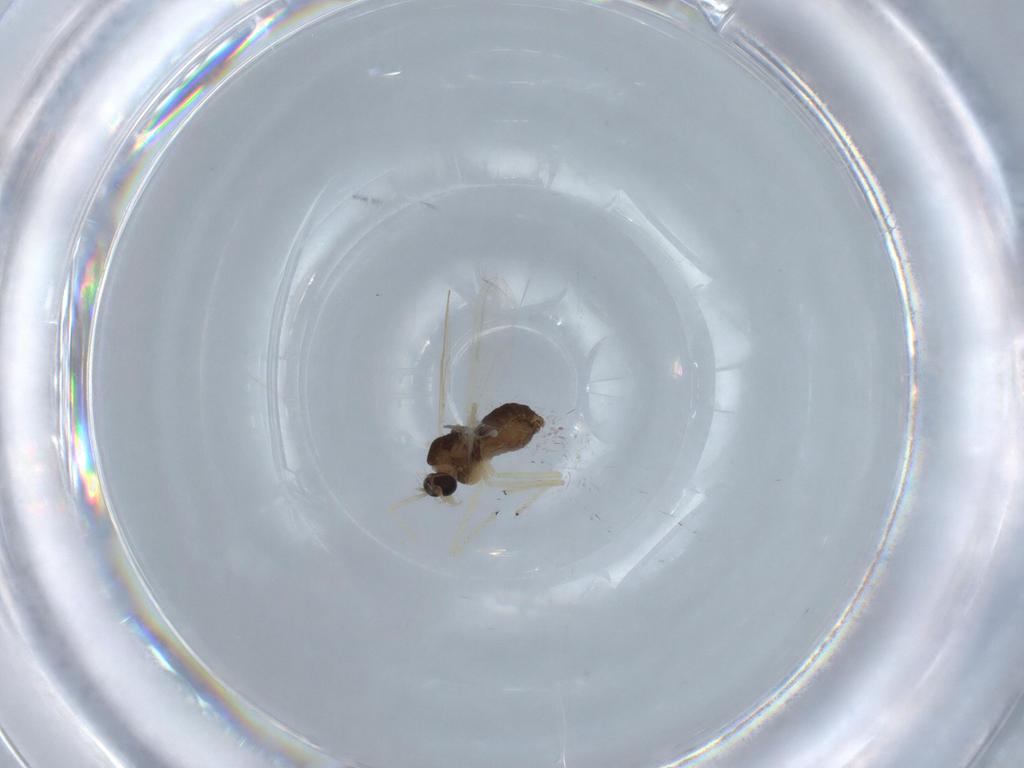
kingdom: Animalia
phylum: Arthropoda
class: Insecta
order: Diptera
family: Chironomidae
